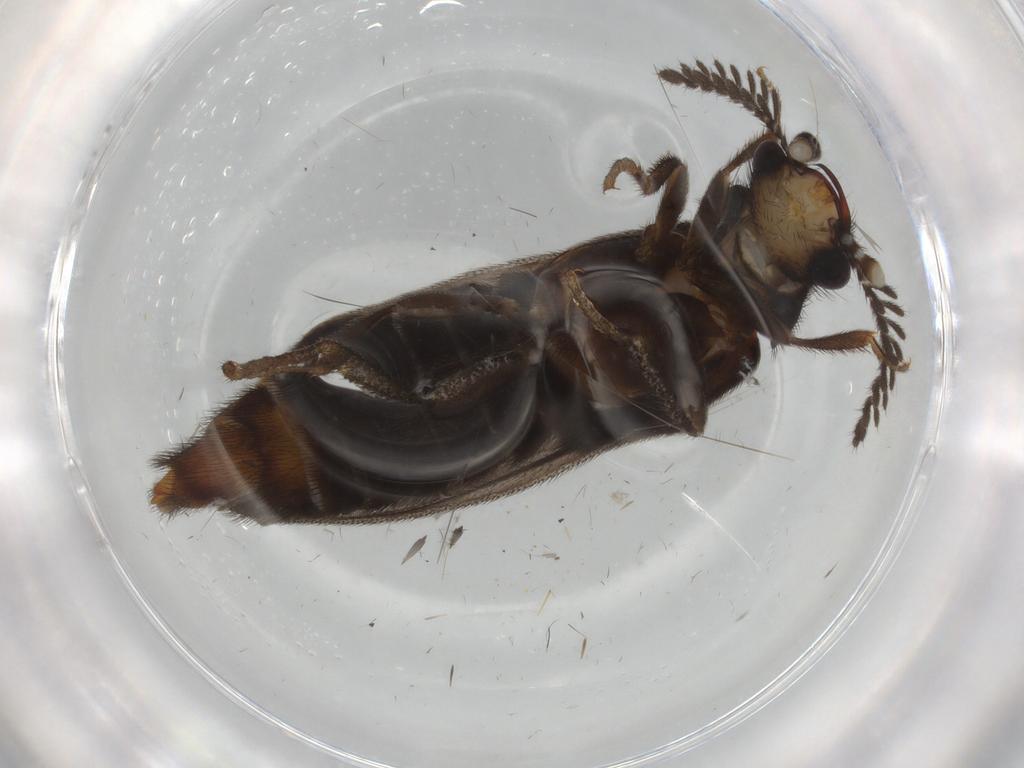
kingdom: Animalia
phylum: Arthropoda
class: Insecta
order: Coleoptera
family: Phengodidae
